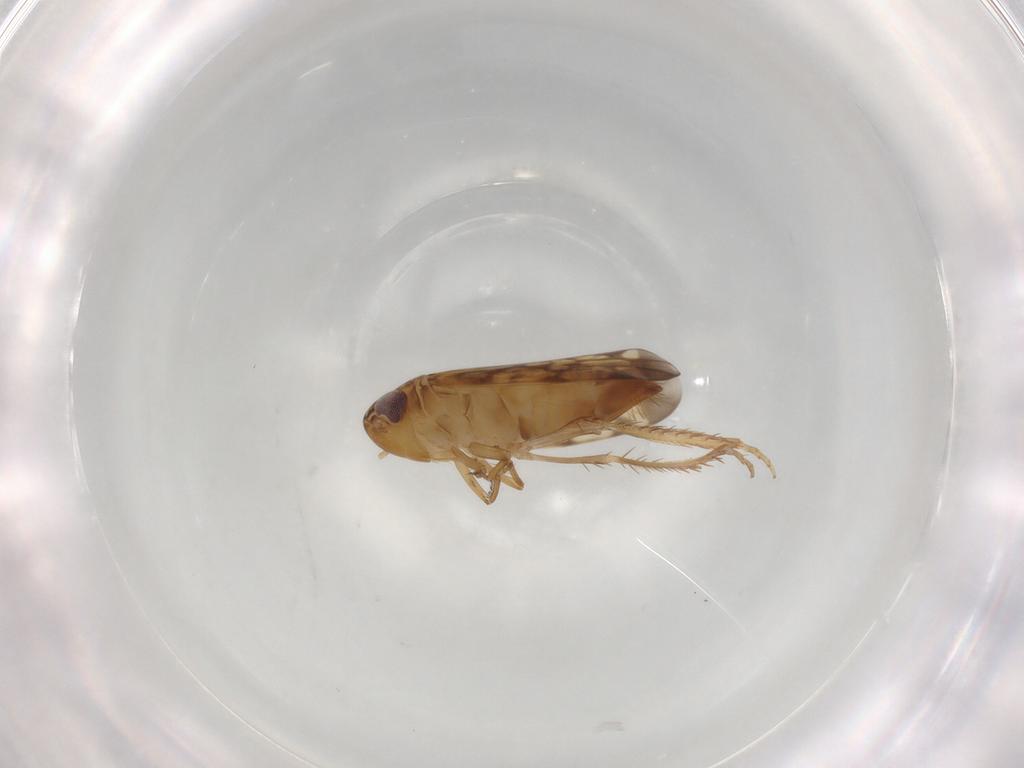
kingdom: Animalia
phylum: Arthropoda
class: Insecta
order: Hemiptera
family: Cicadellidae
